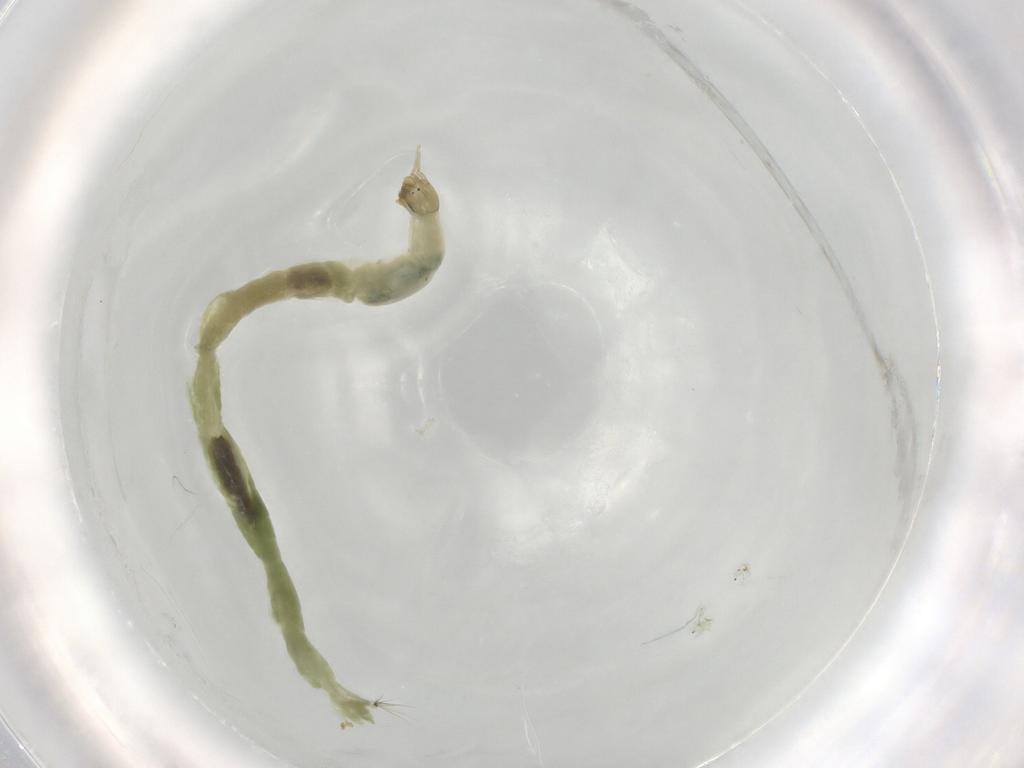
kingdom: Animalia
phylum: Arthropoda
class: Insecta
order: Diptera
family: Chironomidae
